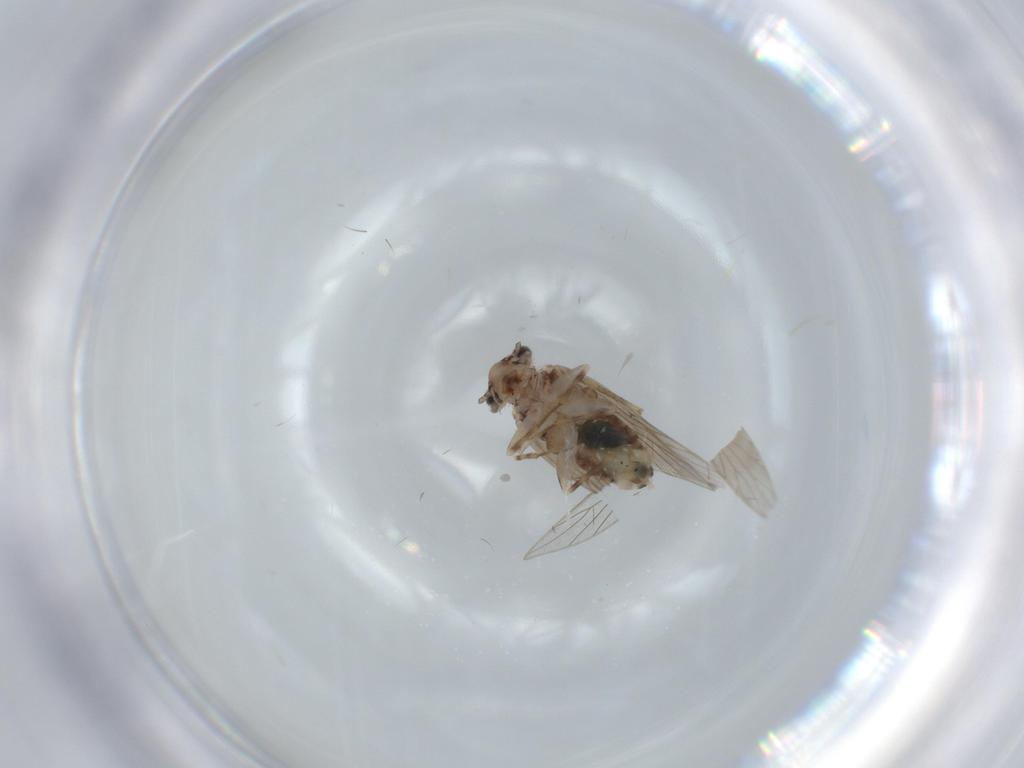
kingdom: Animalia
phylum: Arthropoda
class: Insecta
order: Psocodea
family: Lepidopsocidae
